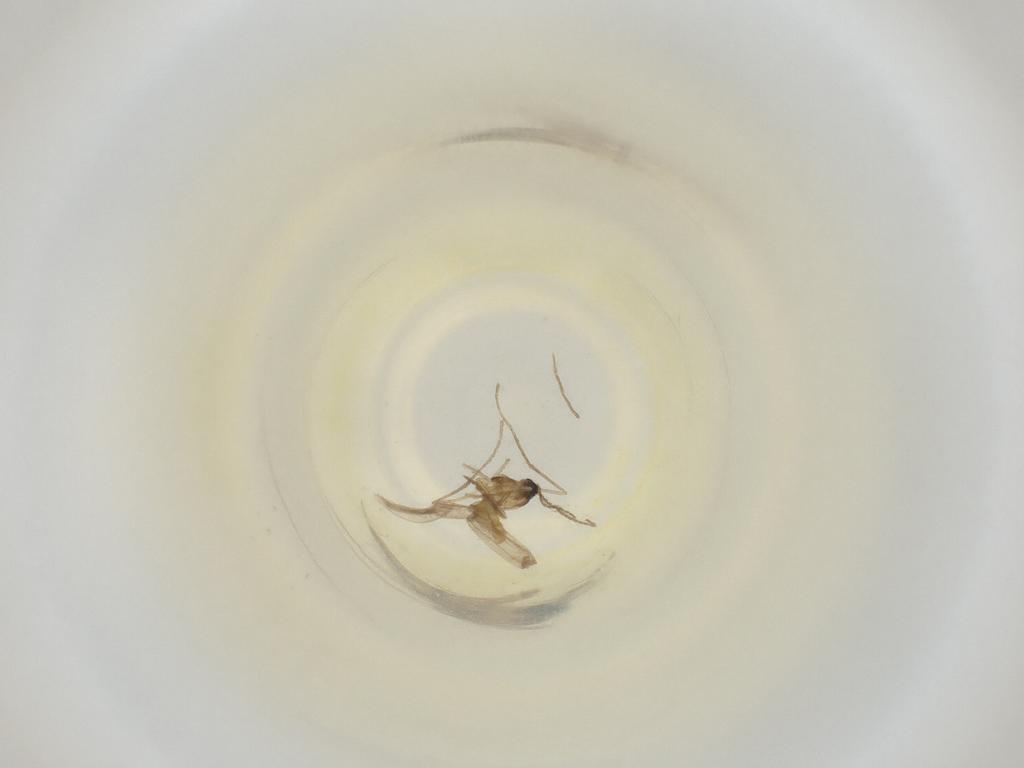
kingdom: Animalia
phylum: Arthropoda
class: Insecta
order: Diptera
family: Cecidomyiidae
